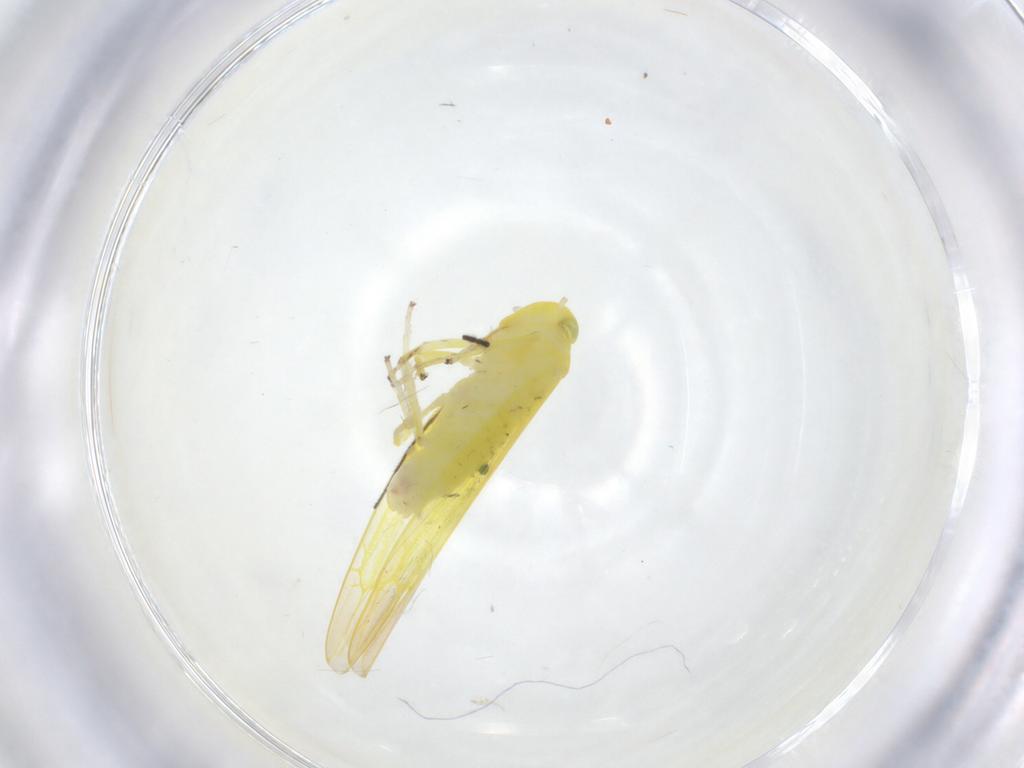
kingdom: Animalia
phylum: Arthropoda
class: Insecta
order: Hemiptera
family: Cicadellidae
